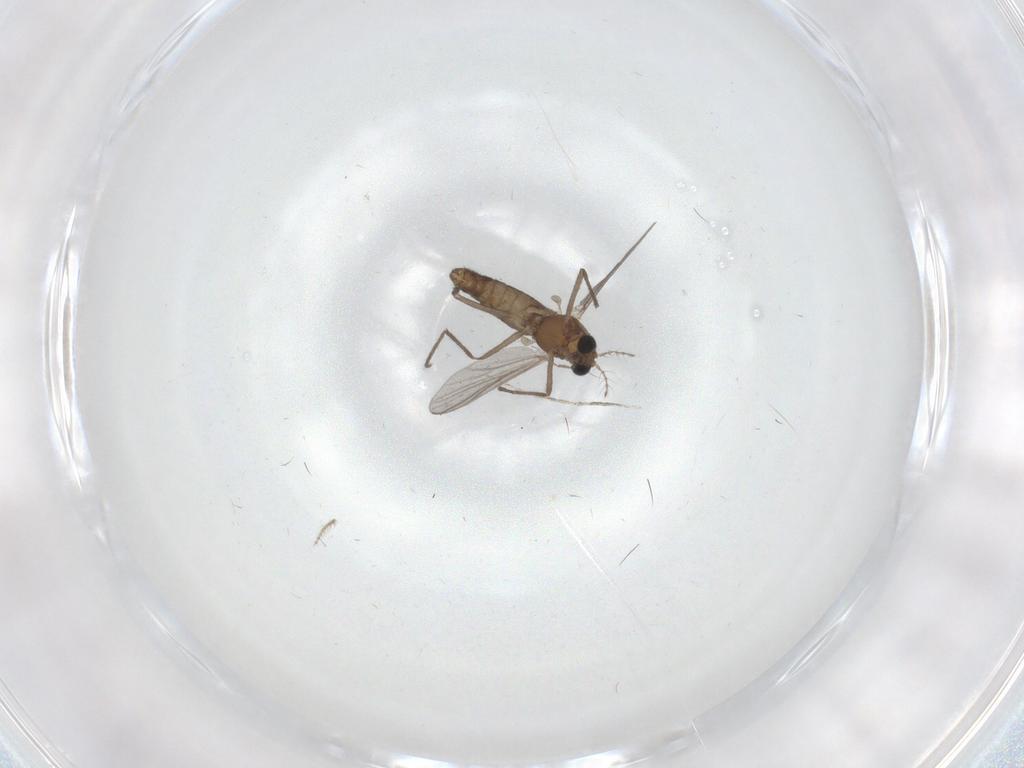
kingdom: Animalia
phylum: Arthropoda
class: Insecta
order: Diptera
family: Chironomidae
